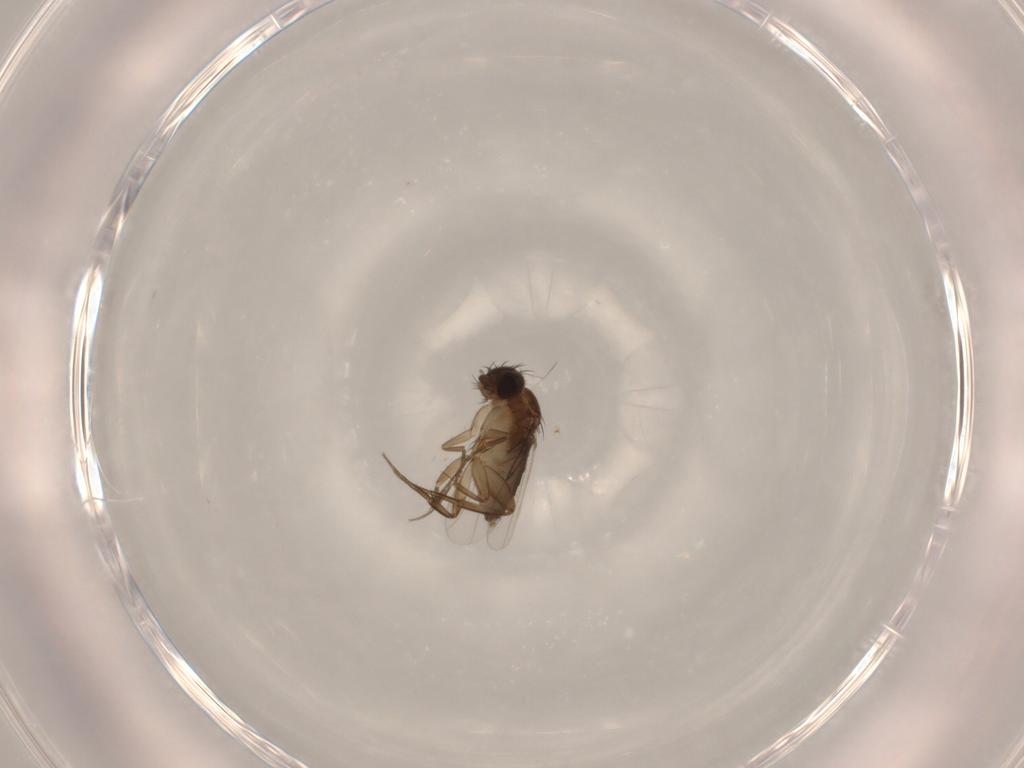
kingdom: Animalia
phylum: Arthropoda
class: Insecta
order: Diptera
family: Phoridae
